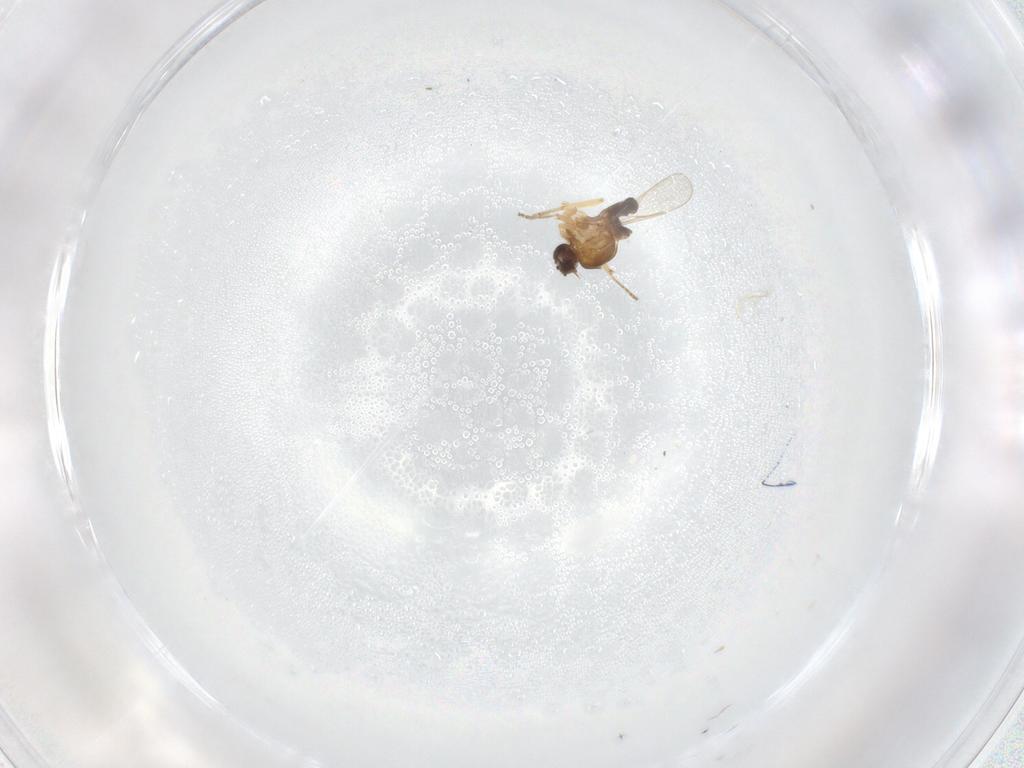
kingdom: Animalia
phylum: Arthropoda
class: Insecta
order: Diptera
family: Ceratopogonidae
